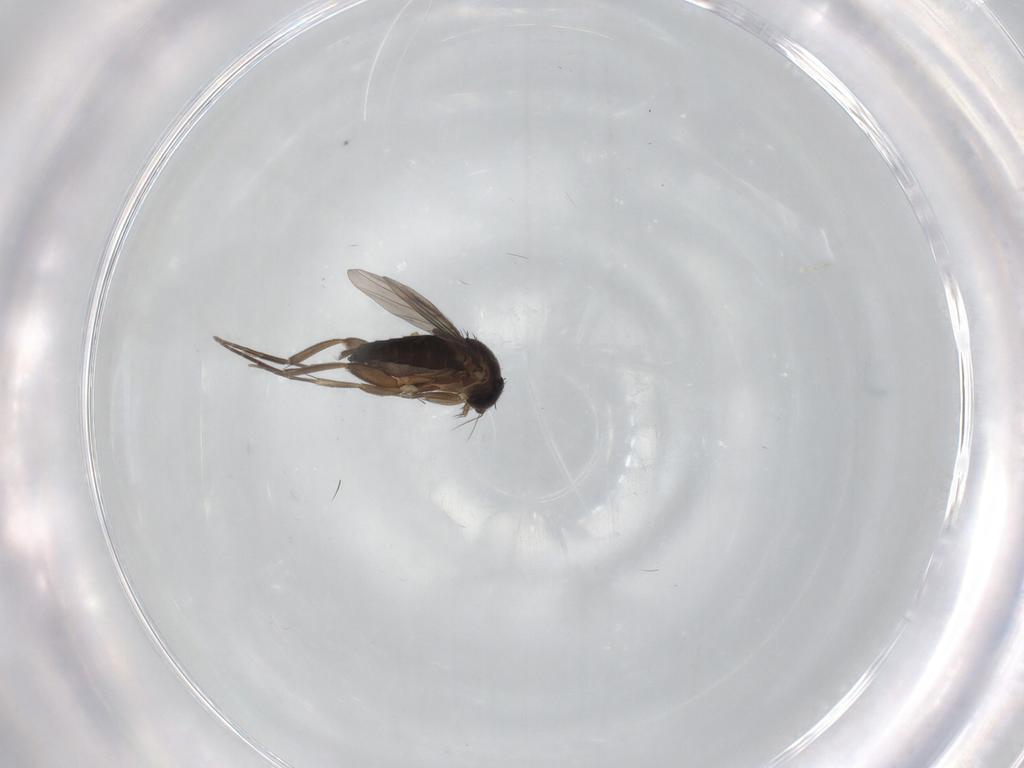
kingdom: Animalia
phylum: Arthropoda
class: Insecta
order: Diptera
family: Phoridae
